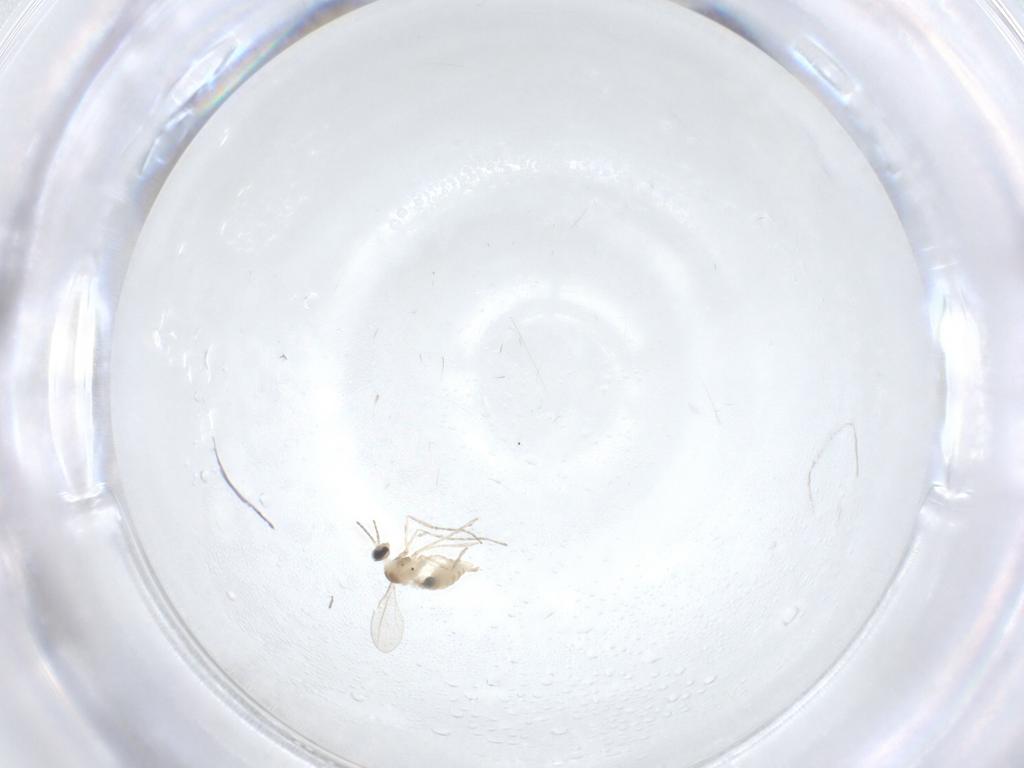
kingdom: Animalia
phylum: Arthropoda
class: Insecta
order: Diptera
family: Cecidomyiidae
